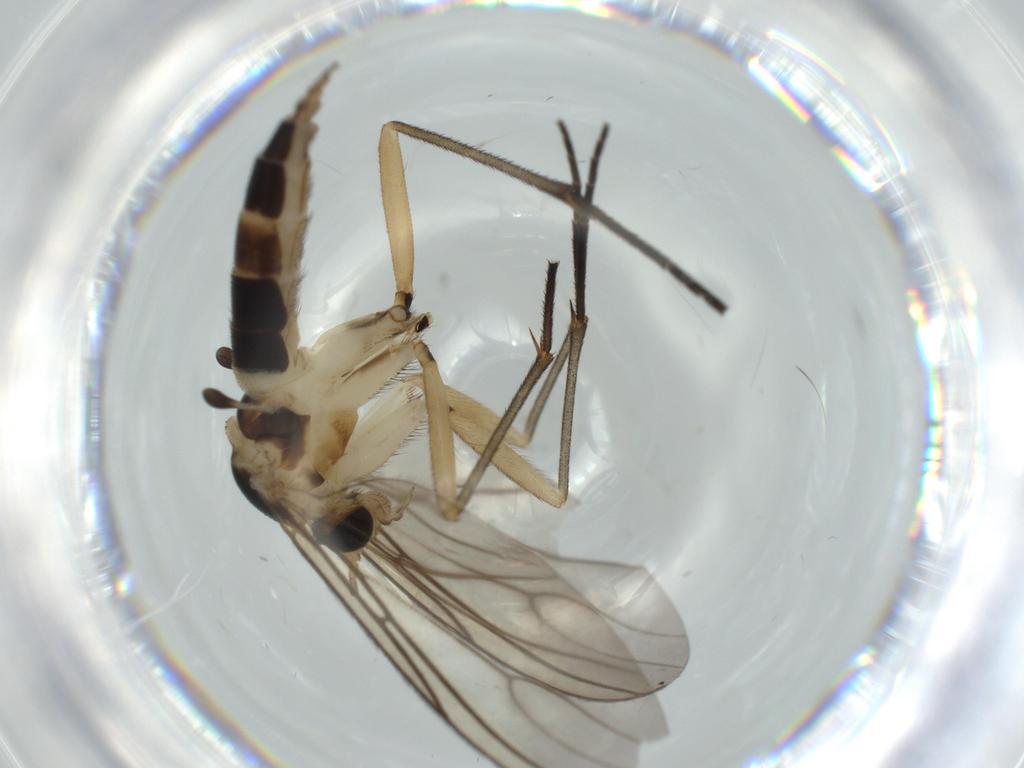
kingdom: Animalia
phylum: Arthropoda
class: Insecta
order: Diptera
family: Sciaridae
